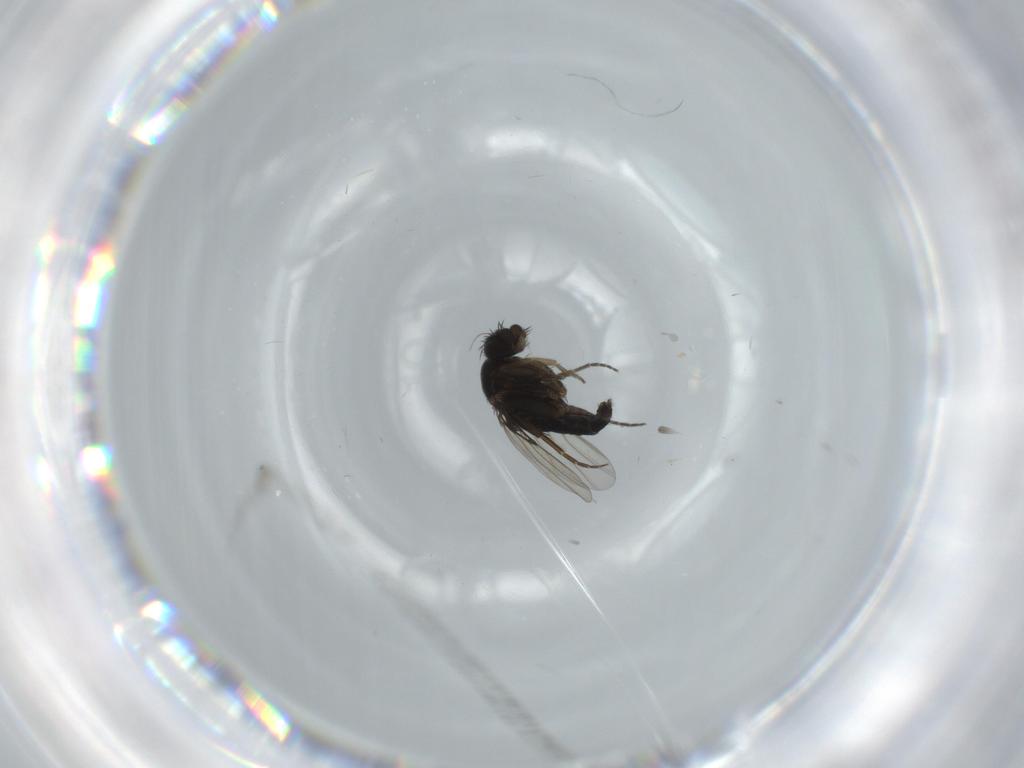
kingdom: Animalia
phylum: Arthropoda
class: Insecta
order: Diptera
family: Phoridae
